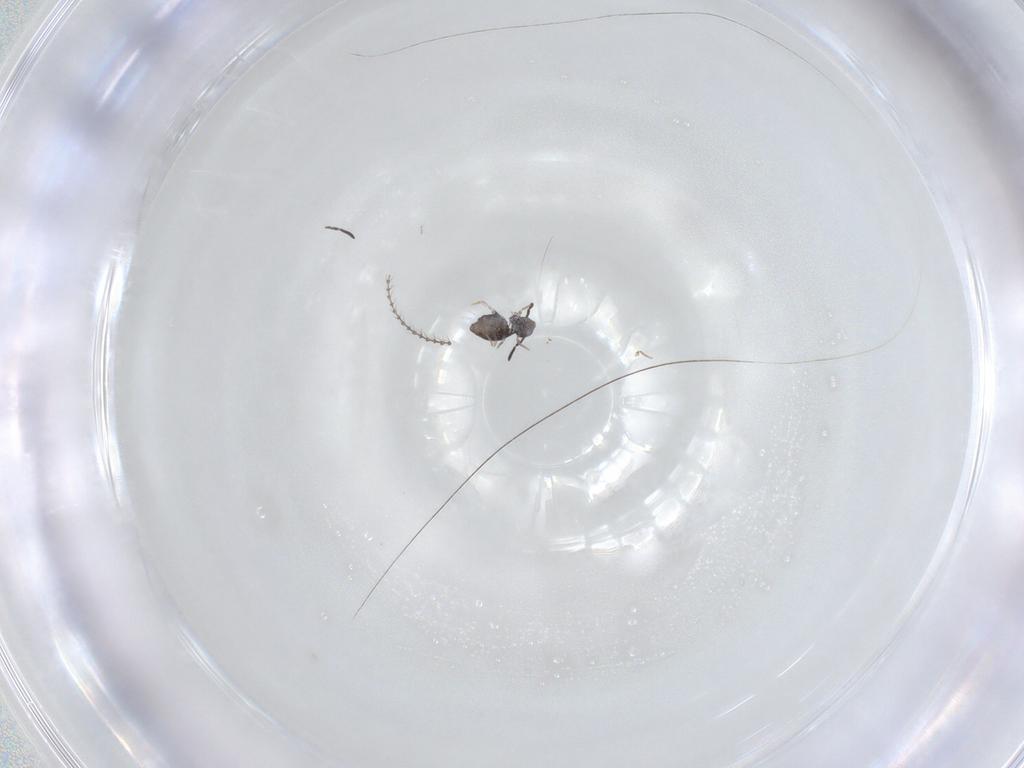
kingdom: Animalia
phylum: Arthropoda
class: Collembola
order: Symphypleona
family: Katiannidae
